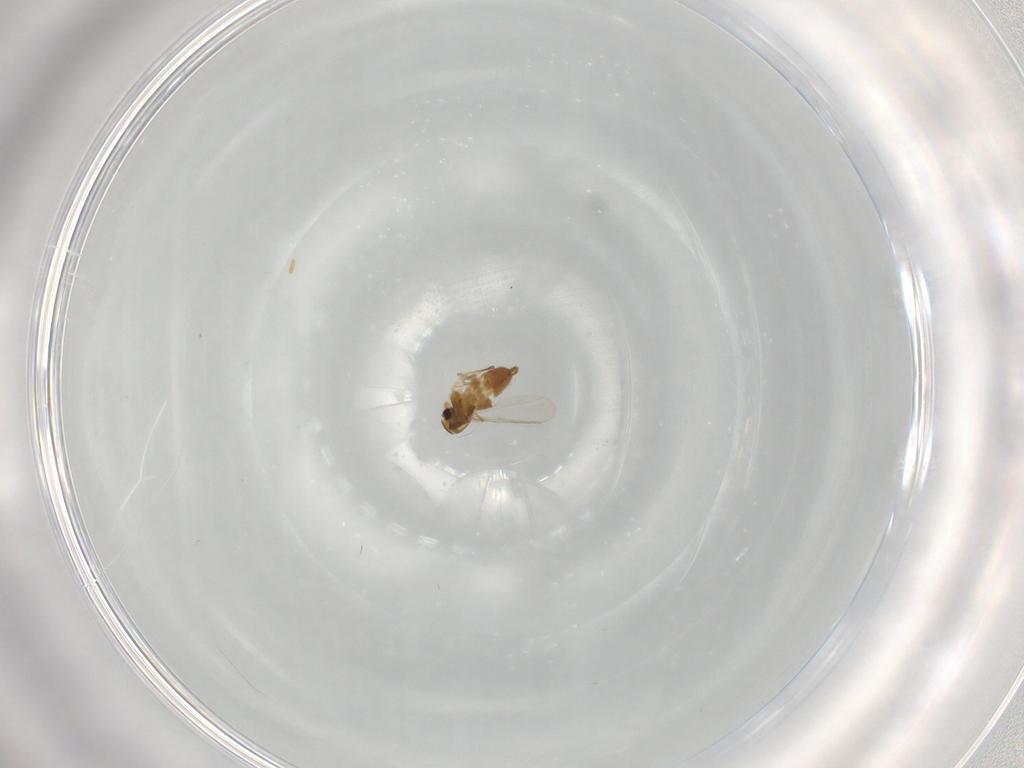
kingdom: Animalia
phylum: Arthropoda
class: Insecta
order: Diptera
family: Chironomidae
